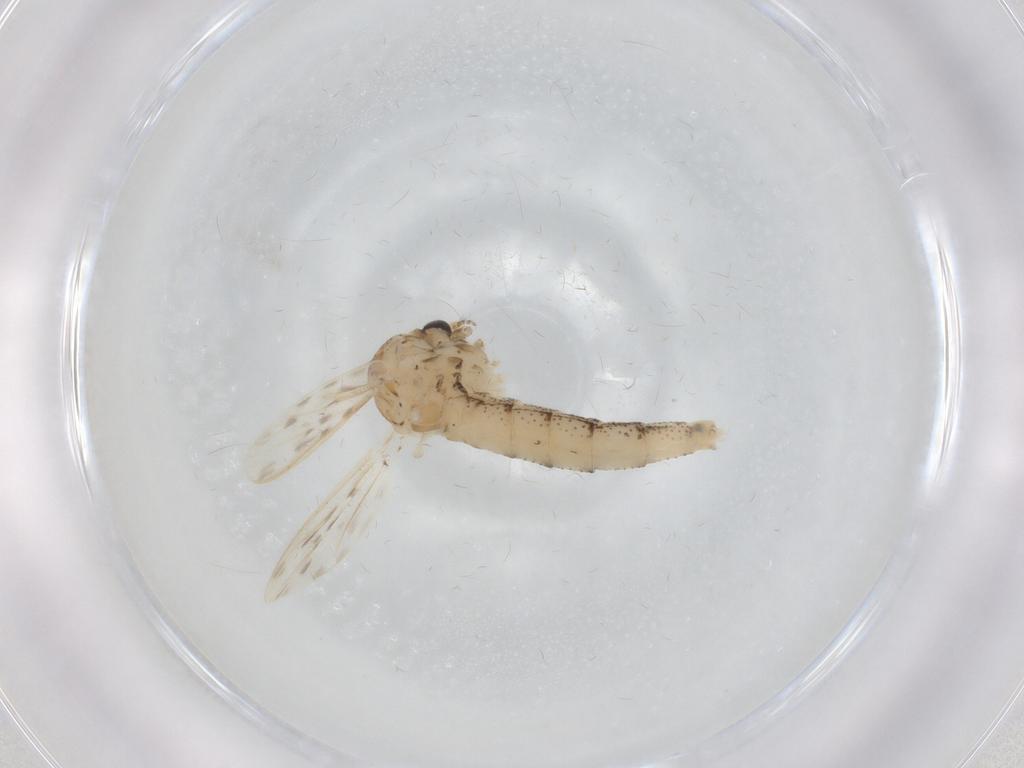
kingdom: Animalia
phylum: Arthropoda
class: Insecta
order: Diptera
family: Chaoboridae
